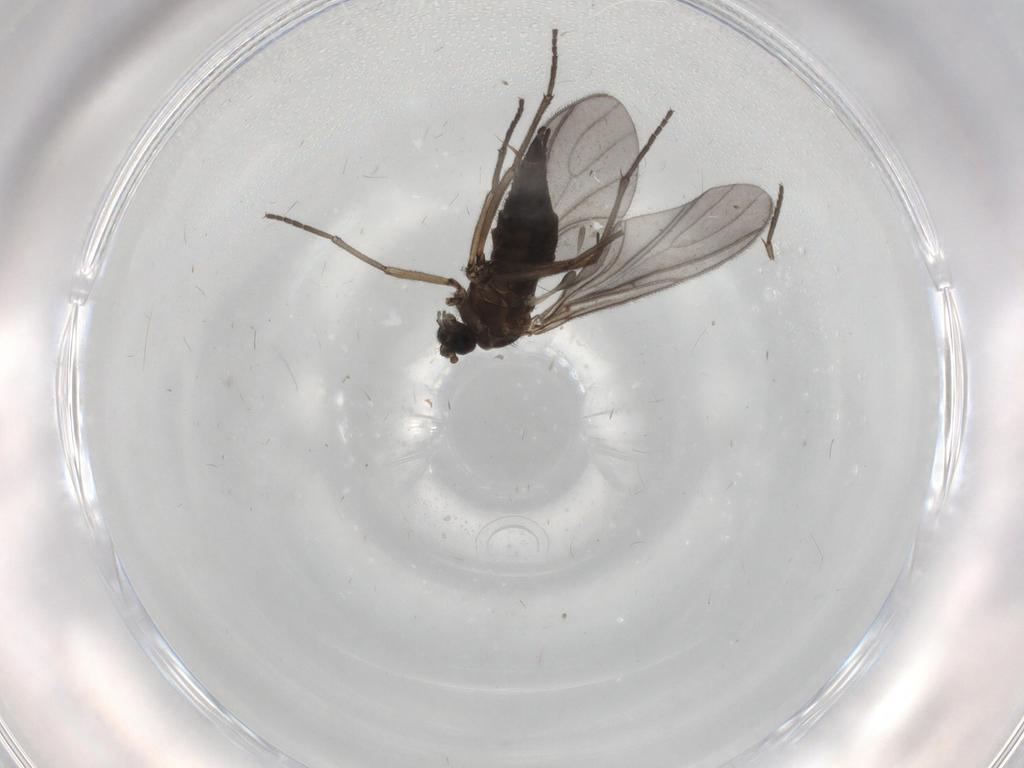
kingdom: Animalia
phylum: Arthropoda
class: Insecta
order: Diptera
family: Sciaridae
